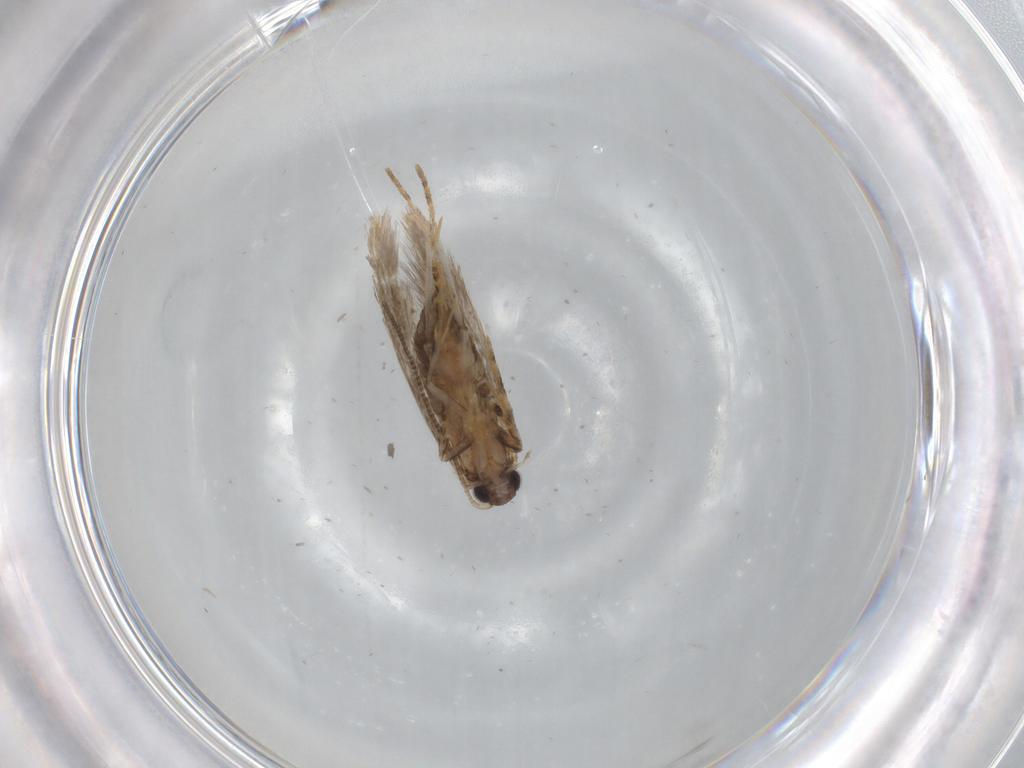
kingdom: Animalia
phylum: Arthropoda
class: Insecta
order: Lepidoptera
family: Tineidae
